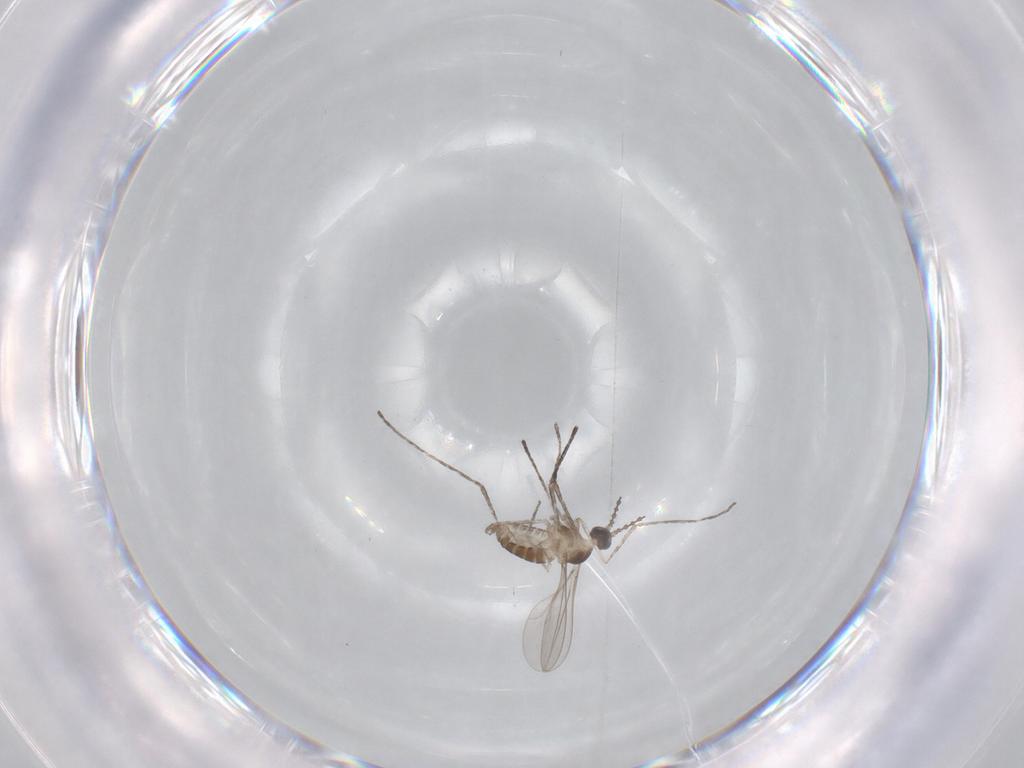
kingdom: Animalia
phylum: Arthropoda
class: Insecta
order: Diptera
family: Cecidomyiidae
